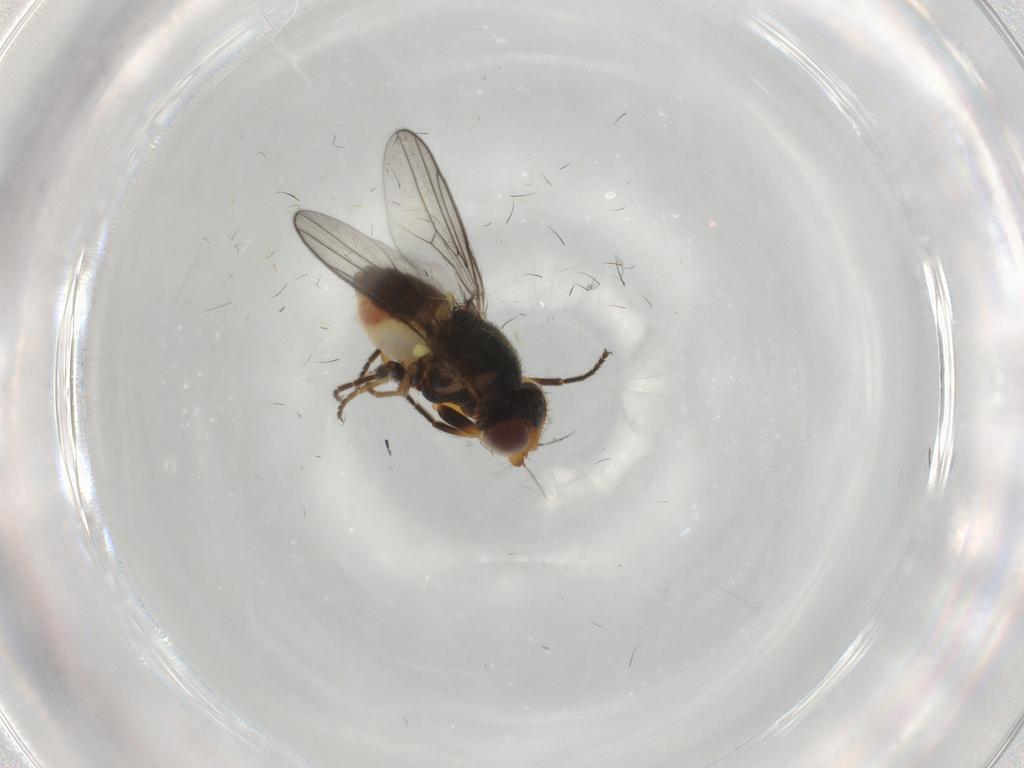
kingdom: Animalia
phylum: Arthropoda
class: Insecta
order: Diptera
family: Chloropidae
